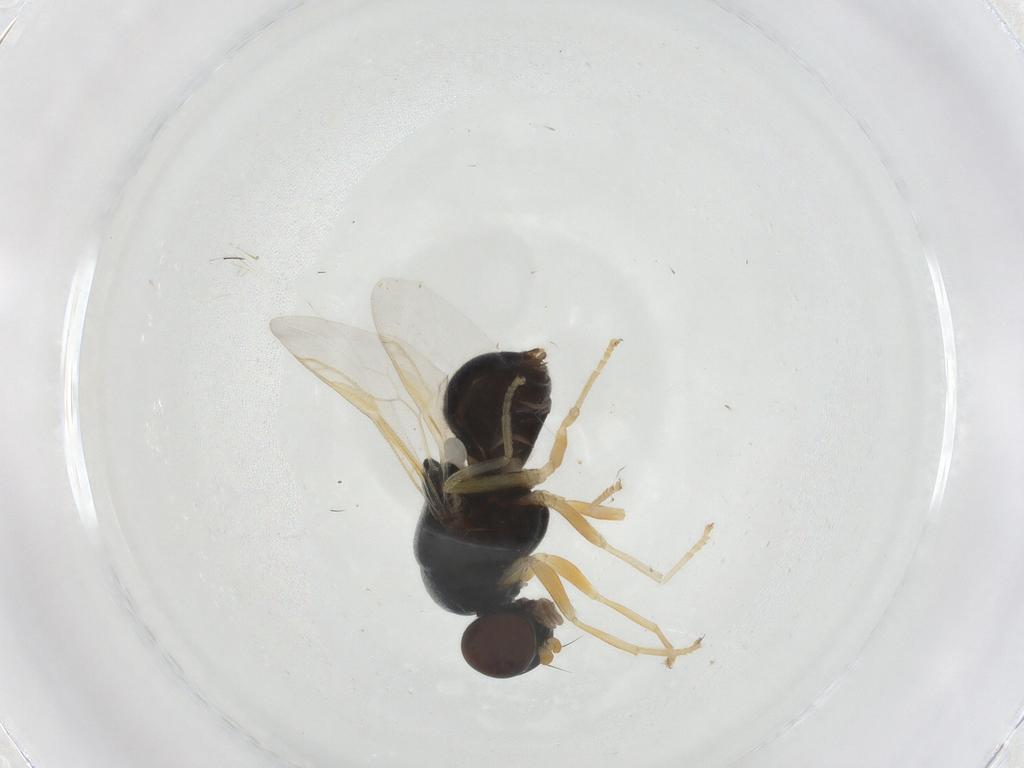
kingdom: Animalia
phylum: Arthropoda
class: Insecta
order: Diptera
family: Stratiomyidae
